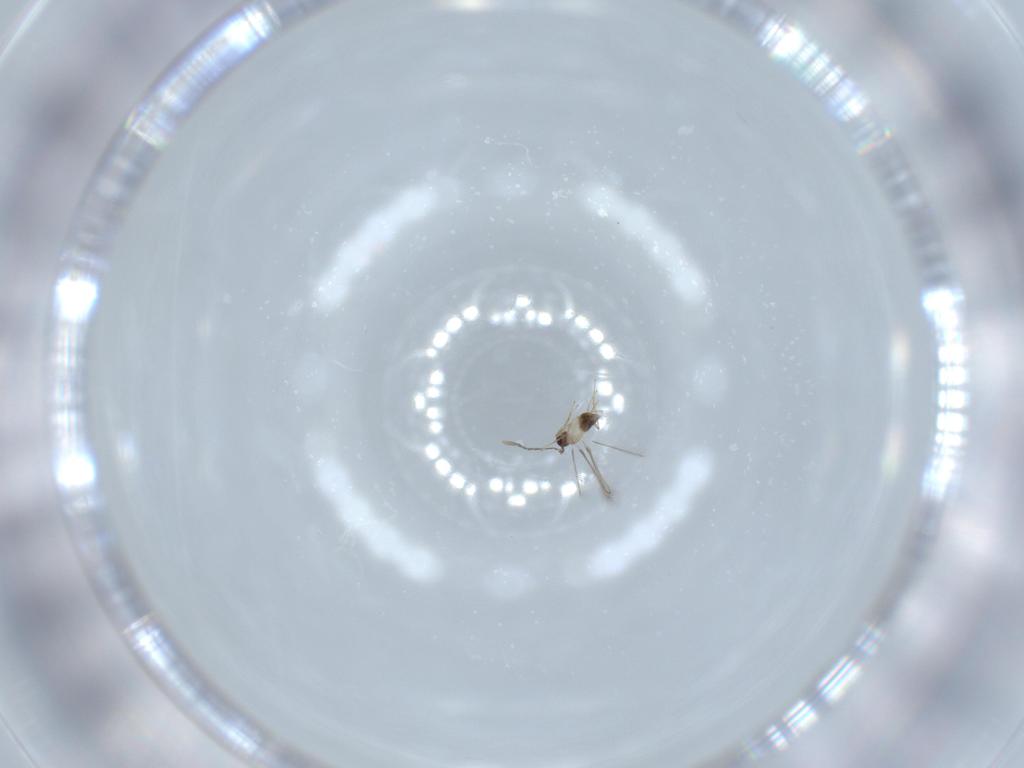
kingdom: Animalia
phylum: Arthropoda
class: Insecta
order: Hymenoptera
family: Mymaridae
